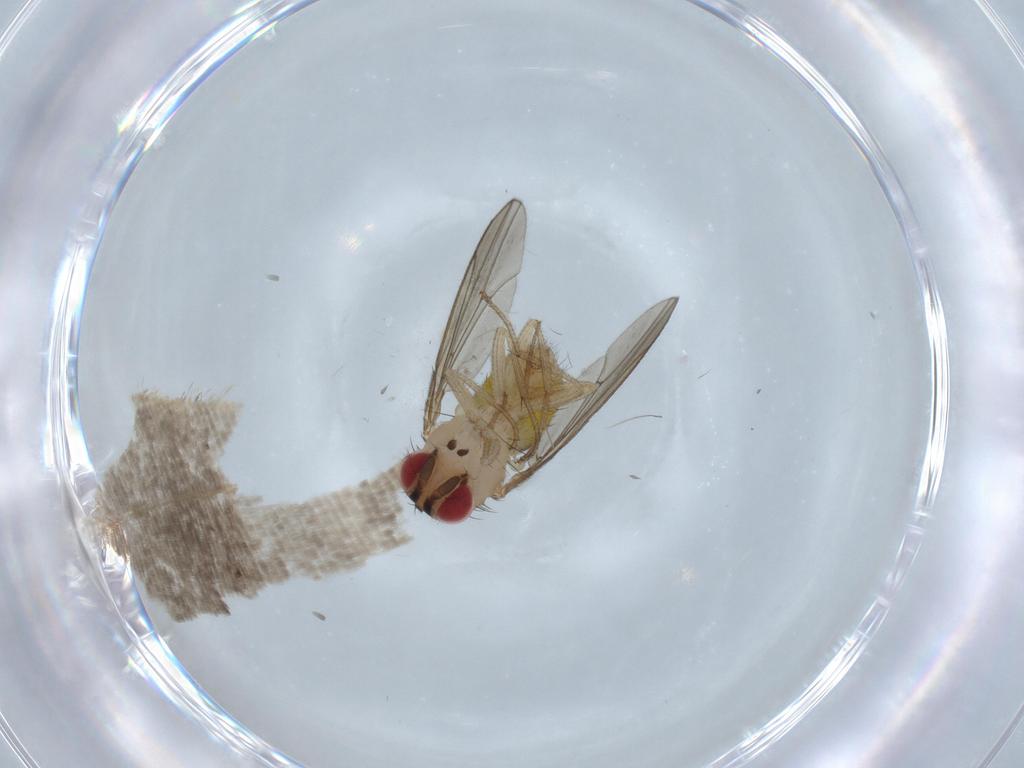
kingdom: Animalia
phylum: Arthropoda
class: Insecta
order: Diptera
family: Drosophilidae
